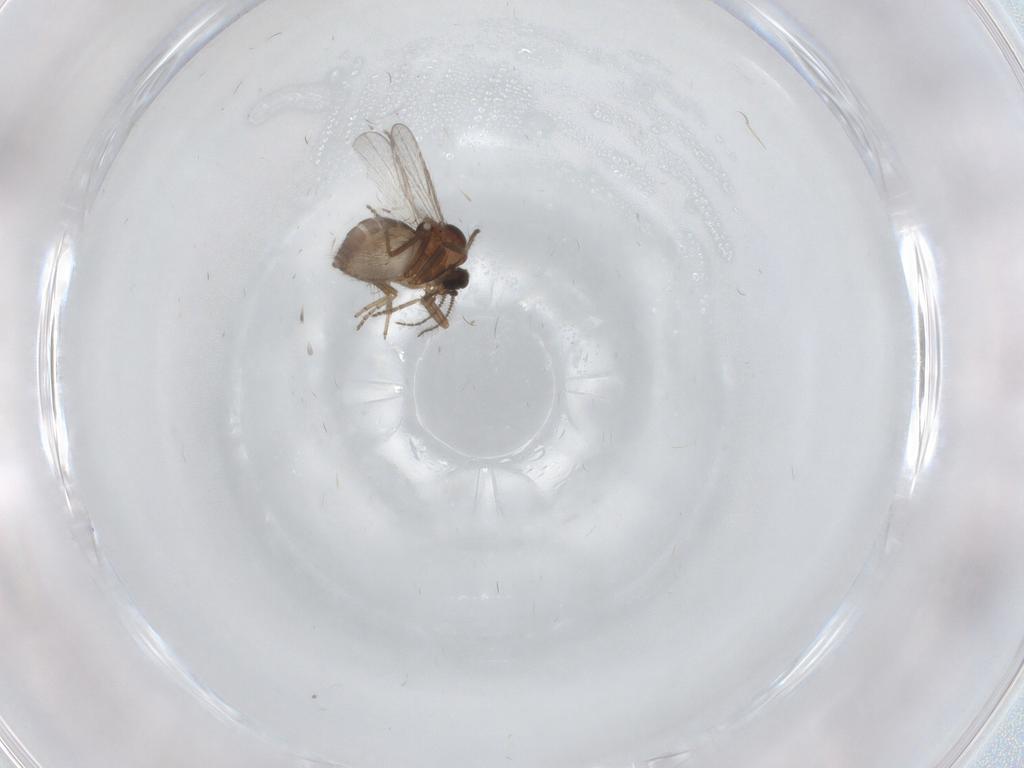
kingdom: Animalia
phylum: Arthropoda
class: Insecta
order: Diptera
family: Ceratopogonidae
